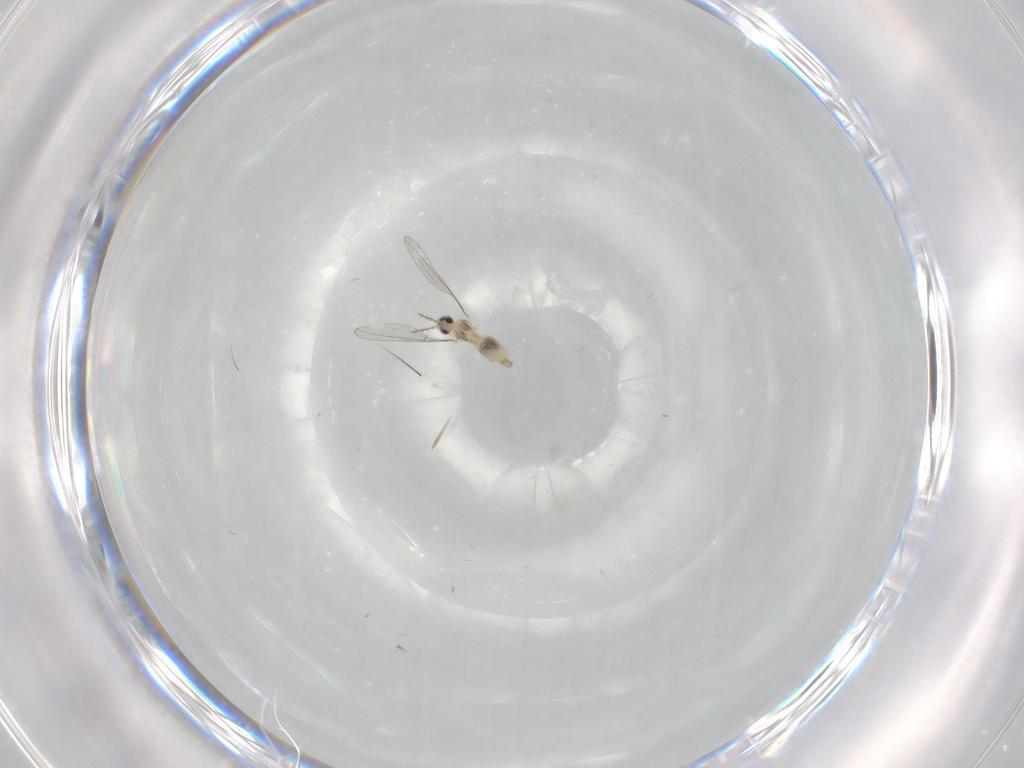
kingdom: Animalia
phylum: Arthropoda
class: Insecta
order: Diptera
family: Cecidomyiidae
